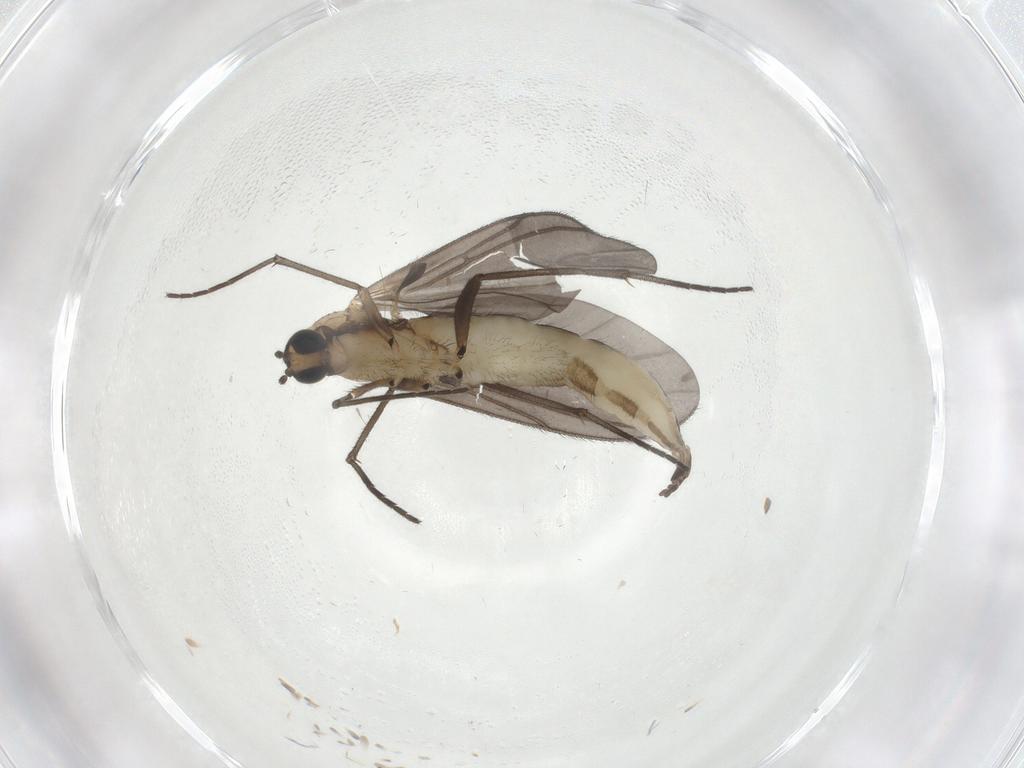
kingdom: Animalia
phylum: Arthropoda
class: Insecta
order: Diptera
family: Sciaridae
